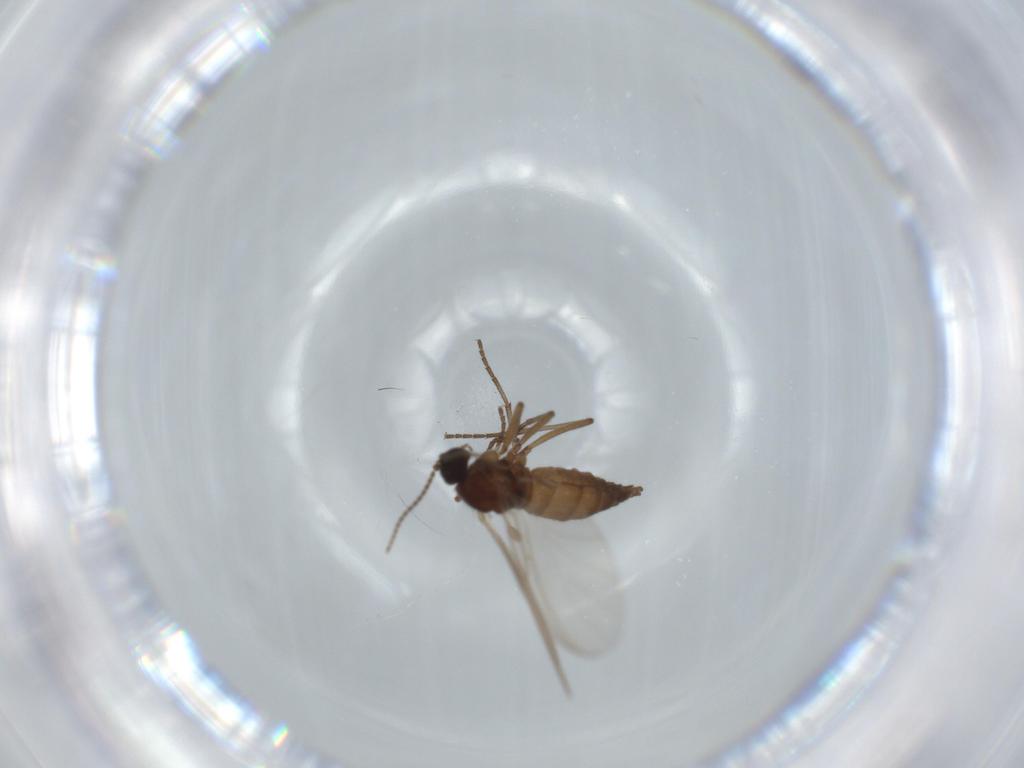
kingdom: Animalia
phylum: Arthropoda
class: Insecta
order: Diptera
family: Sciaridae
